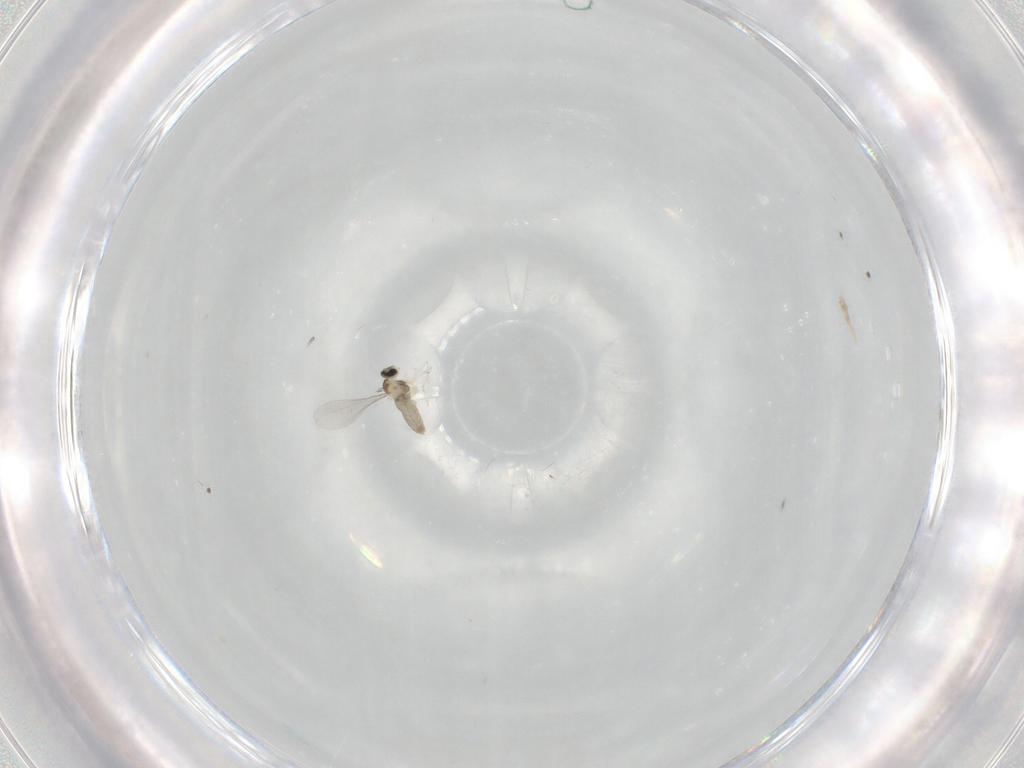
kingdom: Animalia
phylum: Arthropoda
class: Insecta
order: Diptera
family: Cecidomyiidae
